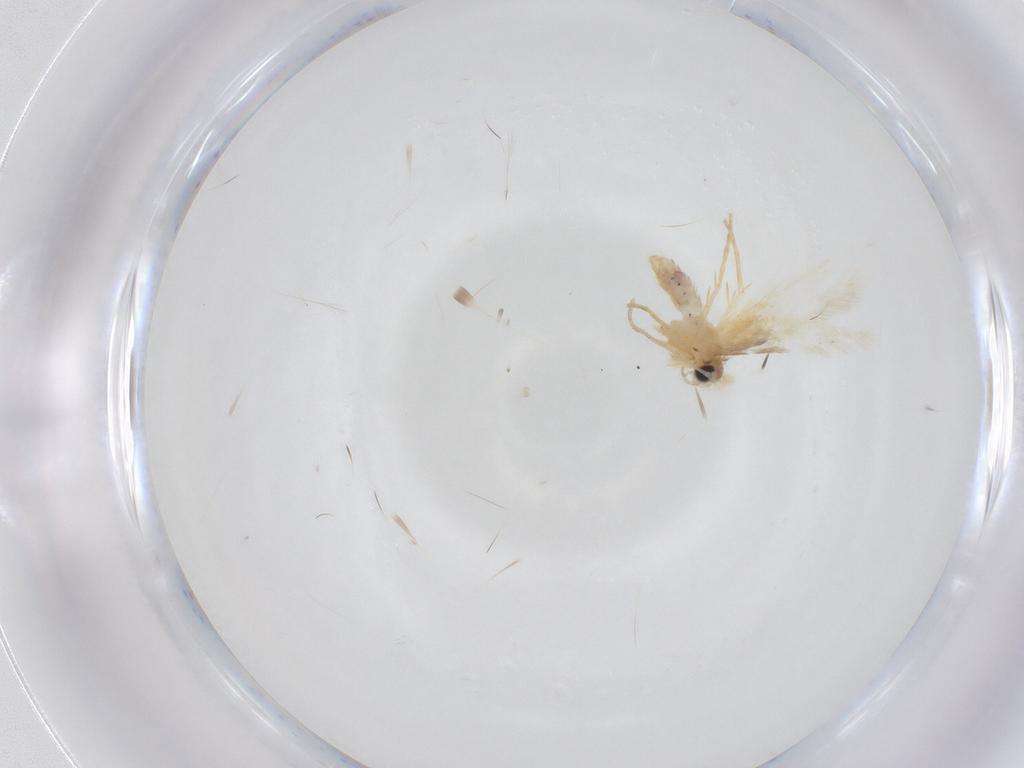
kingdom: Animalia
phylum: Arthropoda
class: Insecta
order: Lepidoptera
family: Nepticulidae
